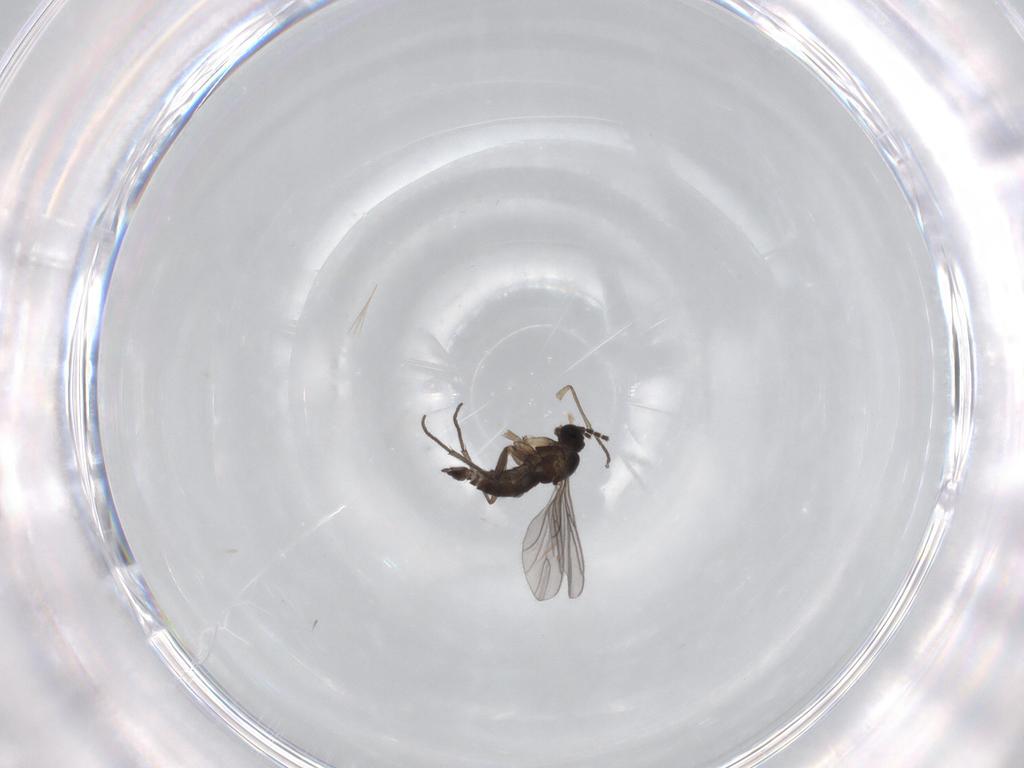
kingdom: Animalia
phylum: Arthropoda
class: Insecta
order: Diptera
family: Sciaridae
